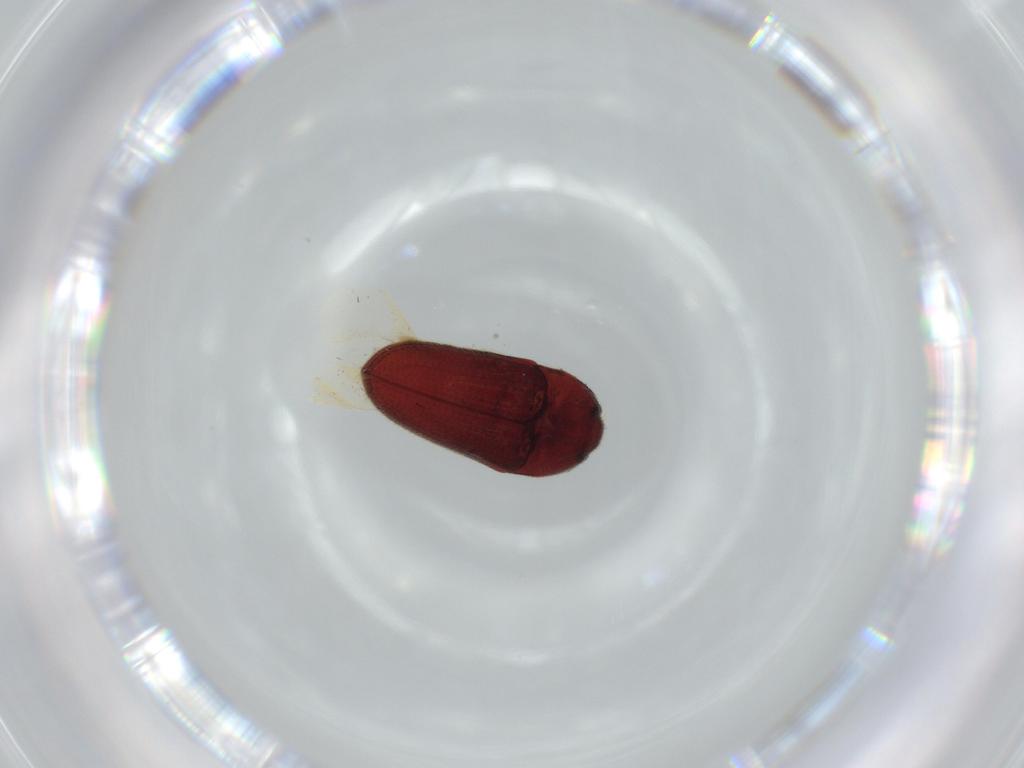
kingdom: Animalia
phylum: Arthropoda
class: Insecta
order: Coleoptera
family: Throscidae
